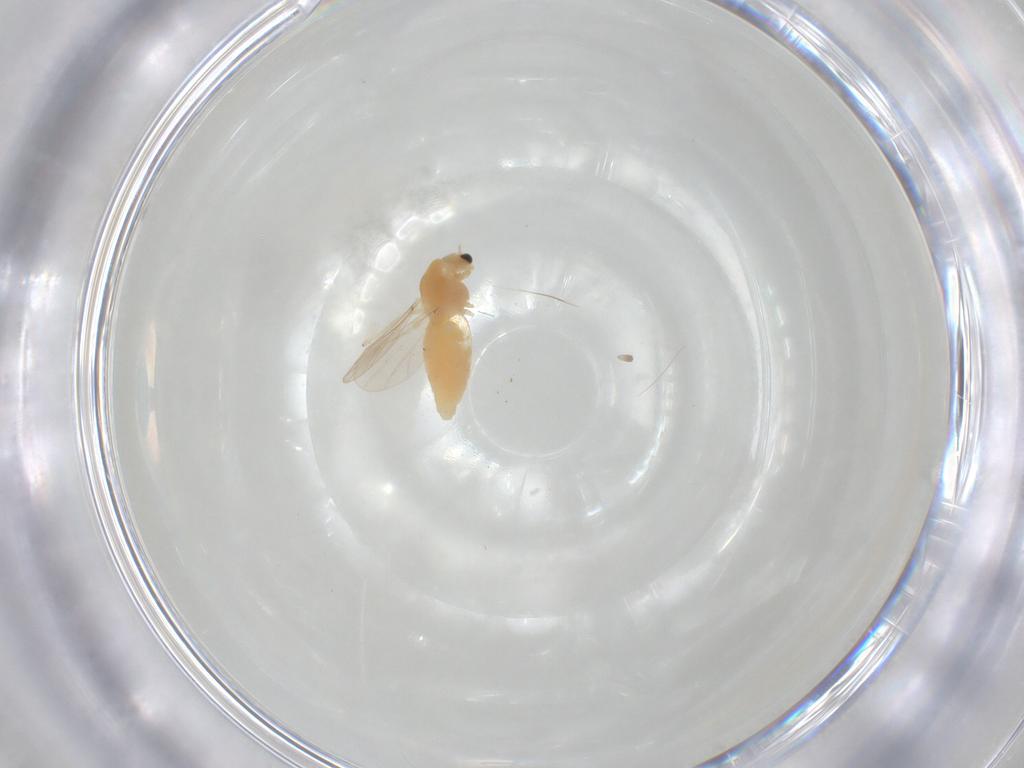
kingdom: Animalia
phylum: Arthropoda
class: Insecta
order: Diptera
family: Chironomidae
